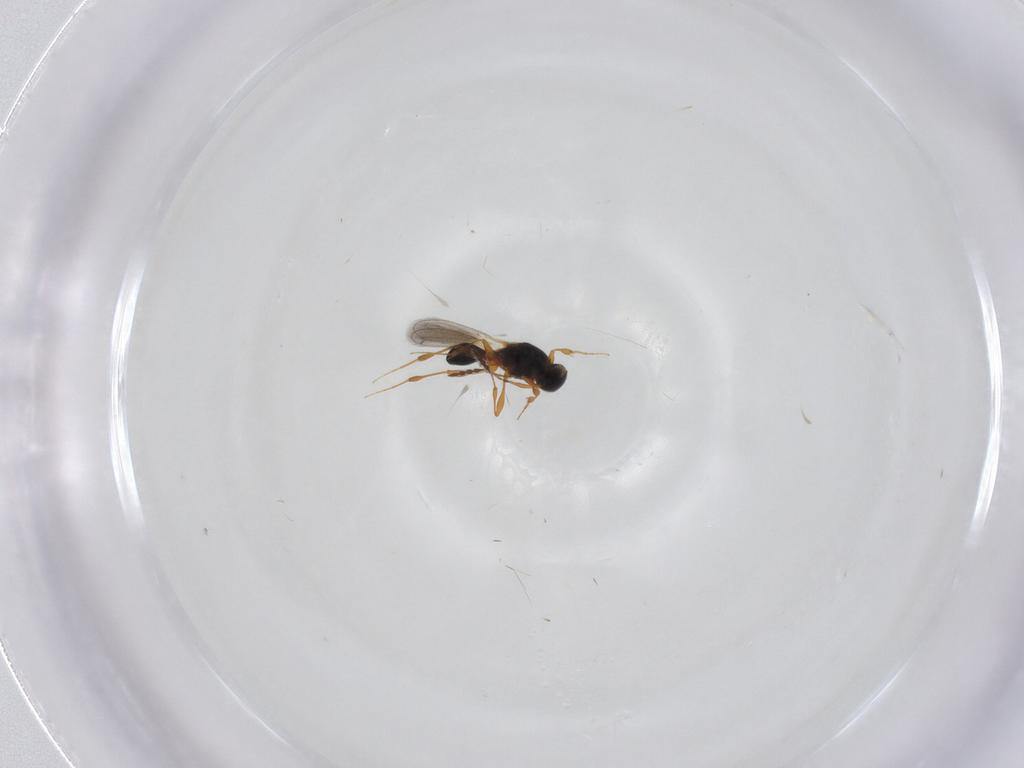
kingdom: Animalia
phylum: Arthropoda
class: Insecta
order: Hymenoptera
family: Platygastridae
